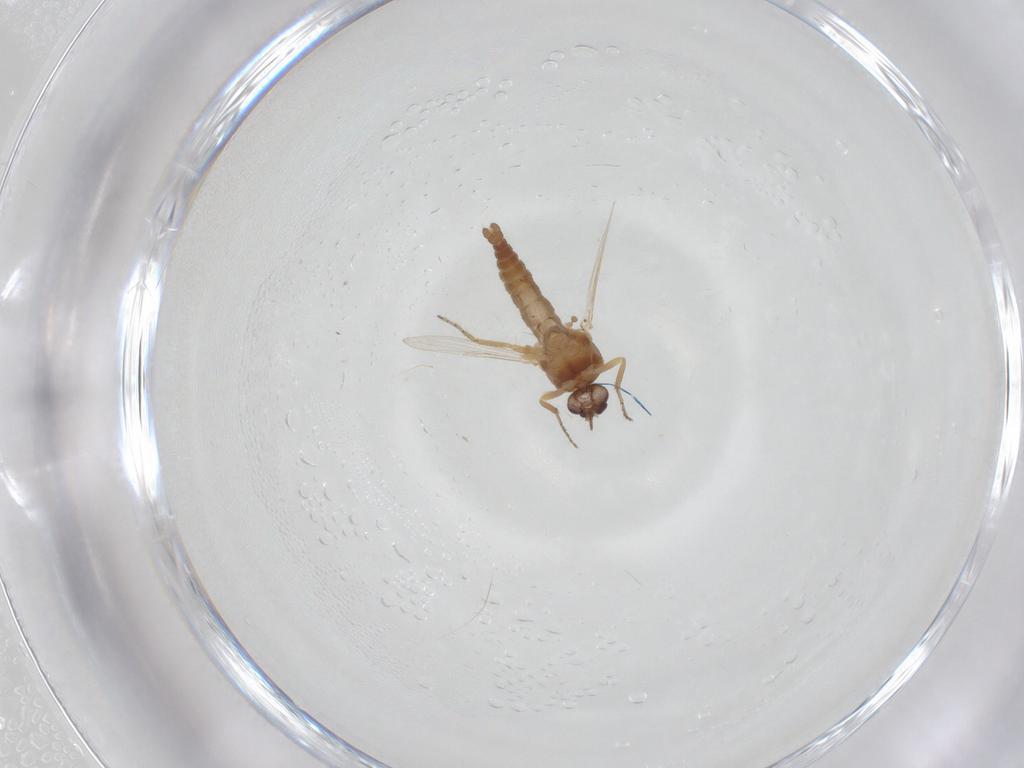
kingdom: Animalia
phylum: Arthropoda
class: Insecta
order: Diptera
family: Ceratopogonidae
